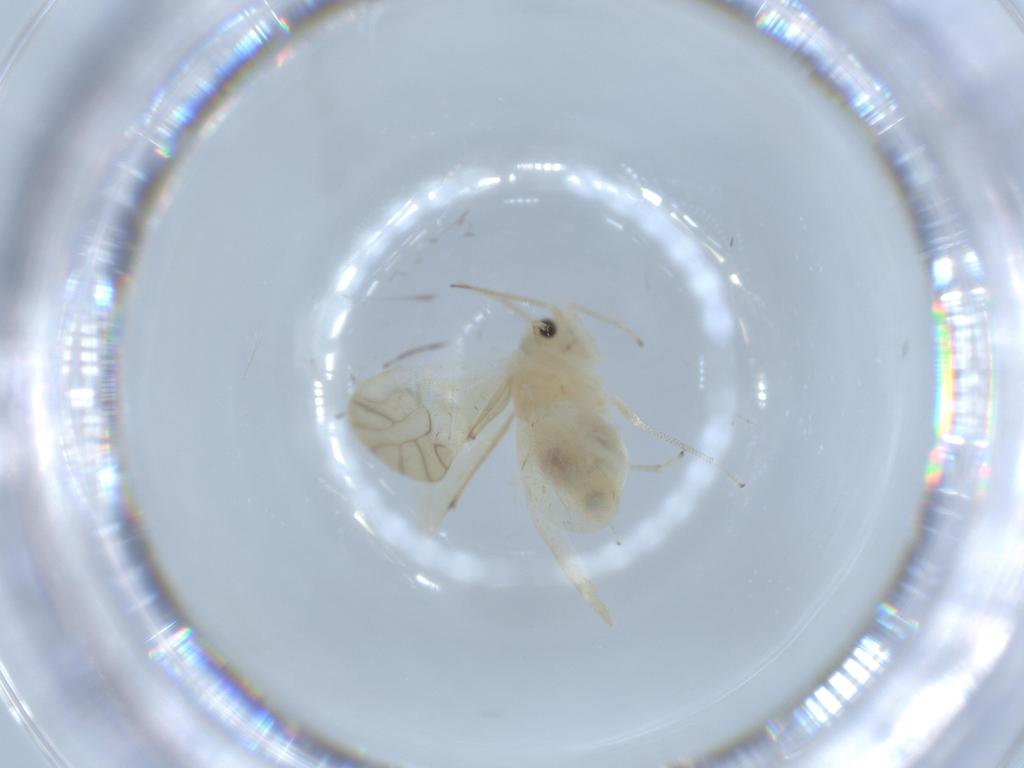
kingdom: Animalia
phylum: Arthropoda
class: Insecta
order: Psocodea
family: Caeciliusidae
